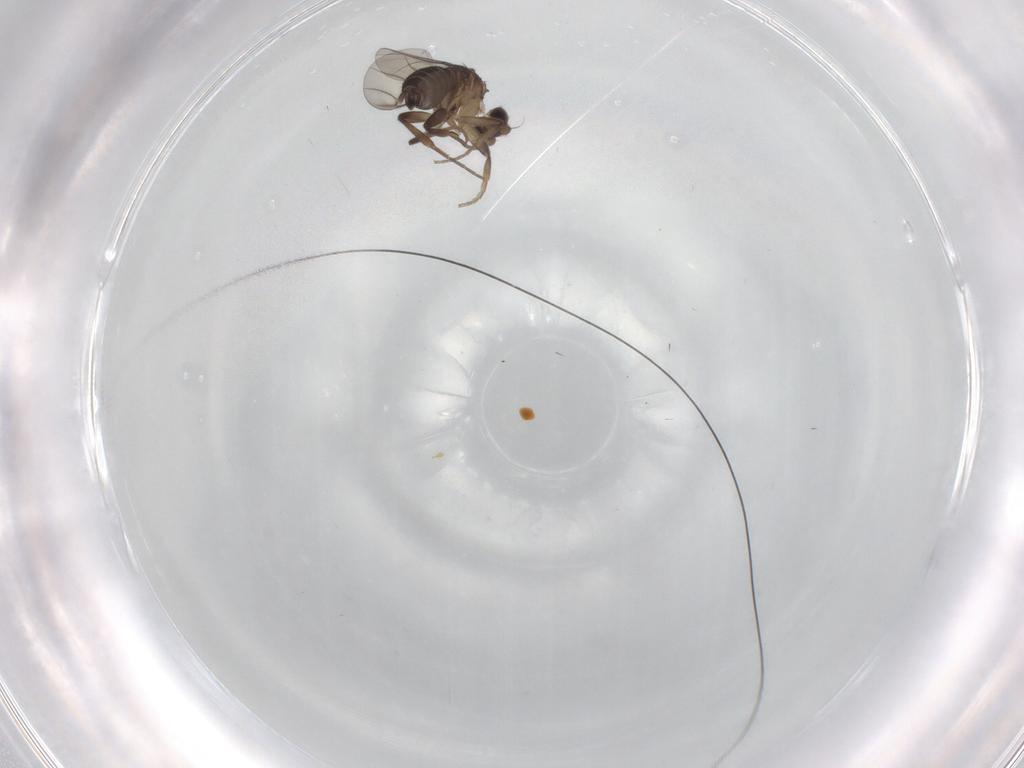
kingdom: Animalia
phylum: Arthropoda
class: Insecta
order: Diptera
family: Phoridae
